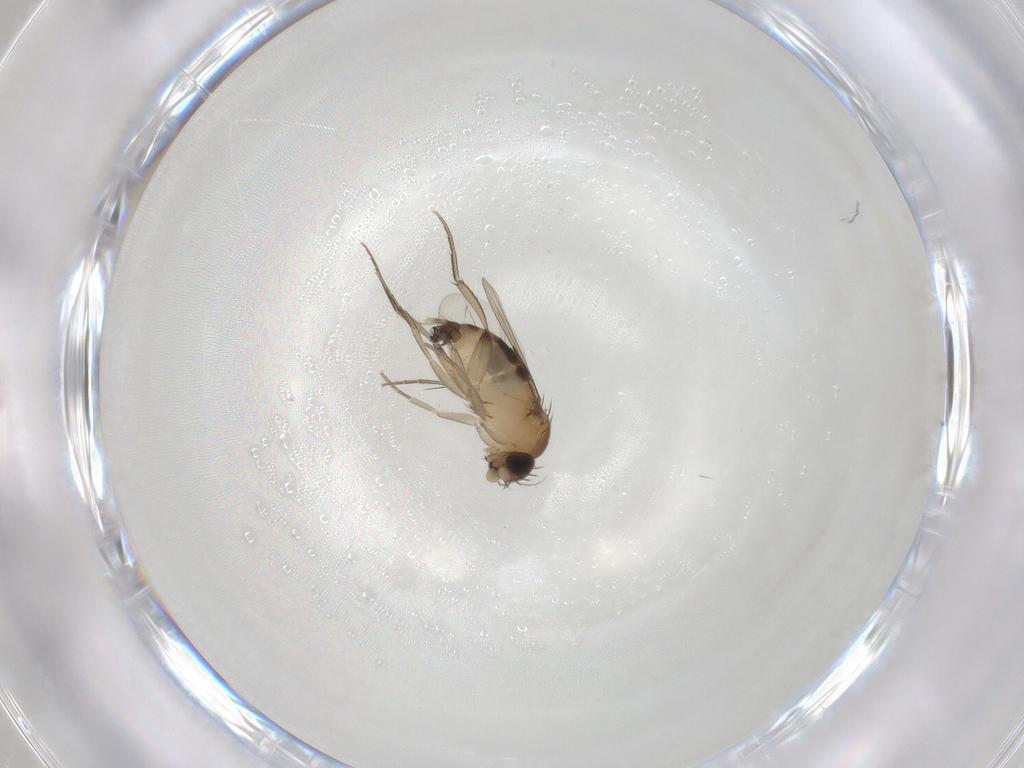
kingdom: Animalia
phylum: Arthropoda
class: Insecta
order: Diptera
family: Phoridae
